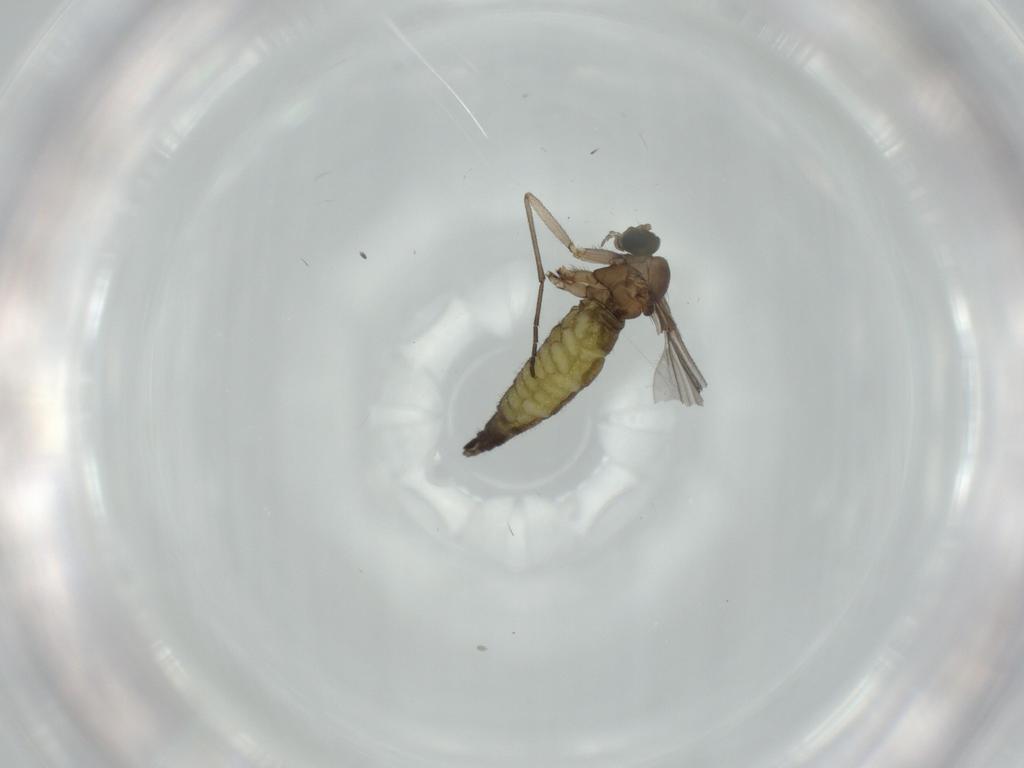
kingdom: Animalia
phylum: Arthropoda
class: Insecta
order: Diptera
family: Sciaridae
